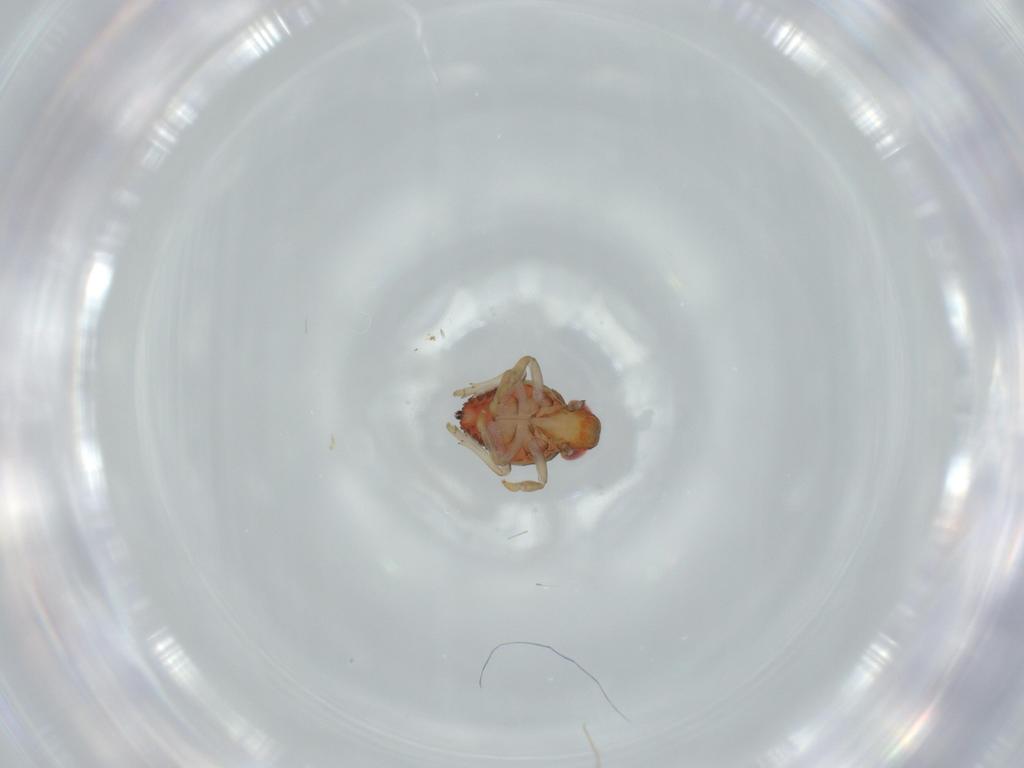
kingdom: Animalia
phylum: Arthropoda
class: Insecta
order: Hemiptera
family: Issidae
